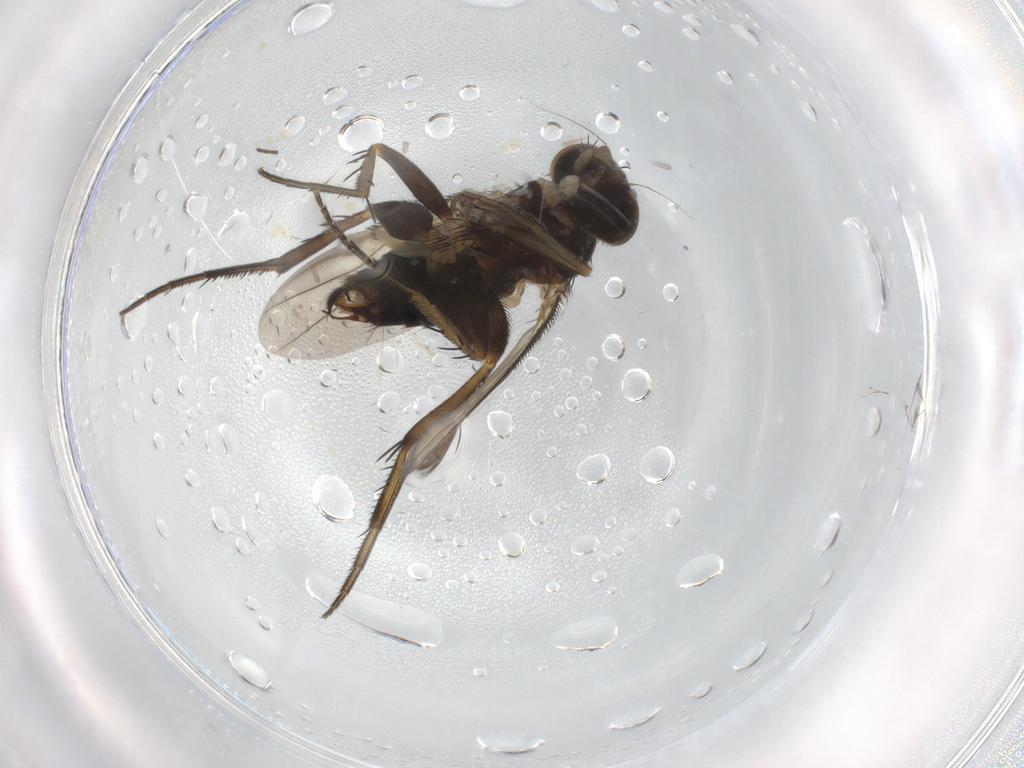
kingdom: Animalia
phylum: Arthropoda
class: Insecta
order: Diptera
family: Phoridae
